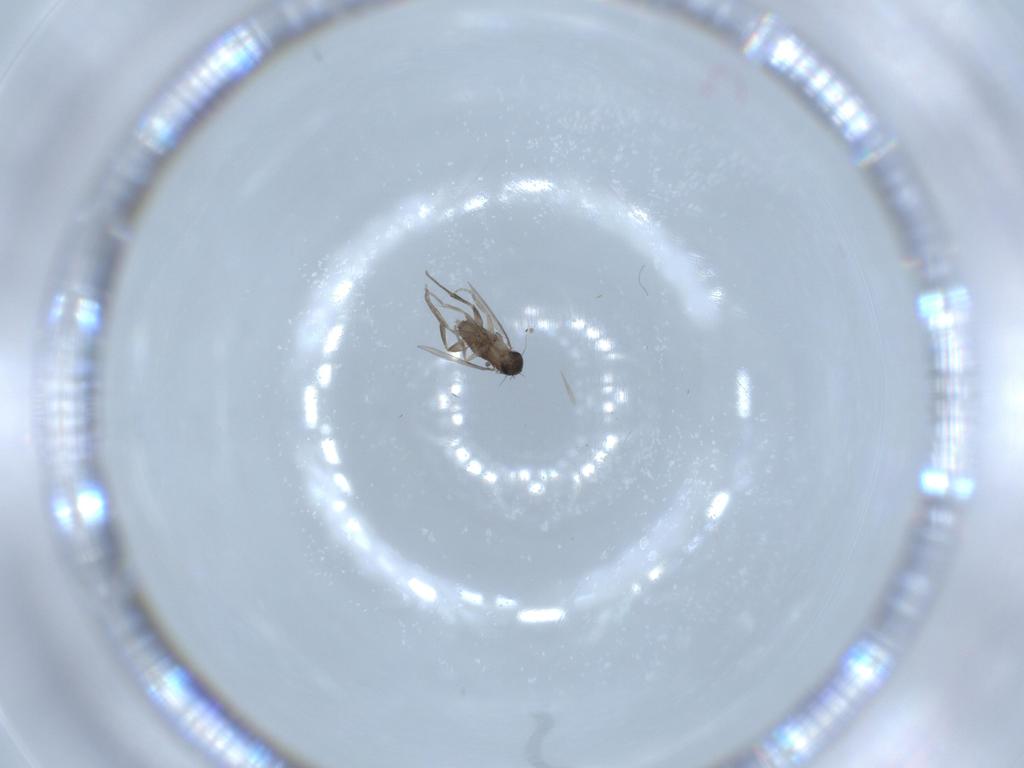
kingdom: Animalia
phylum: Arthropoda
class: Insecta
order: Diptera
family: Phoridae
